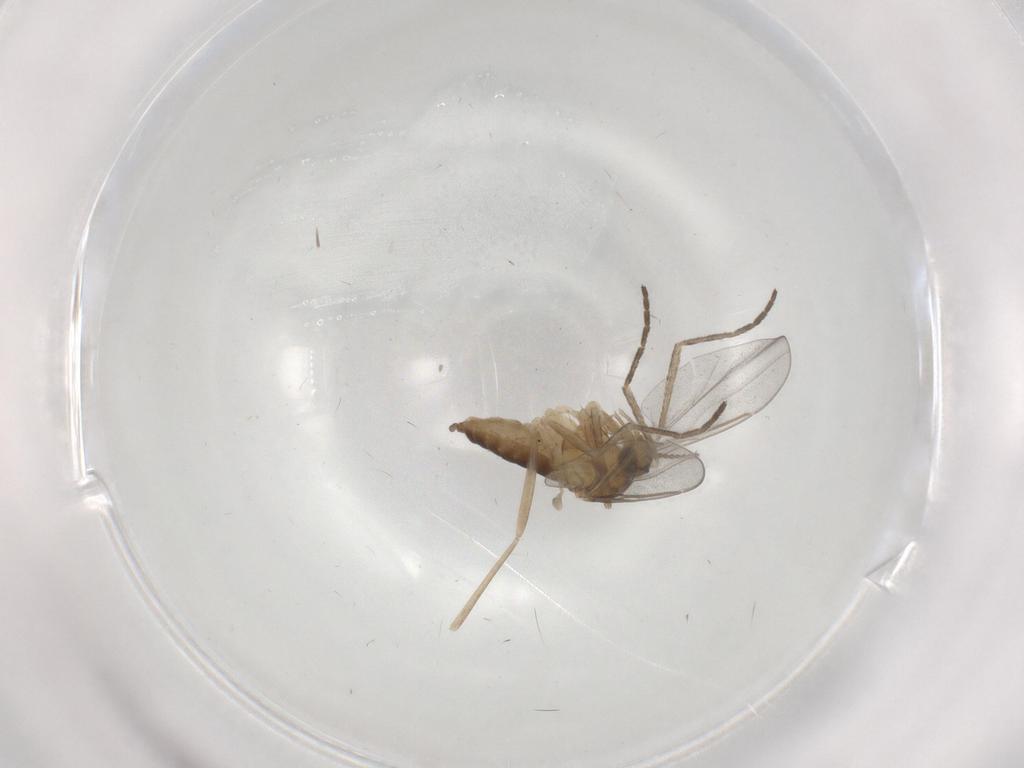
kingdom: Animalia
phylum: Arthropoda
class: Insecta
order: Diptera
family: Cecidomyiidae
